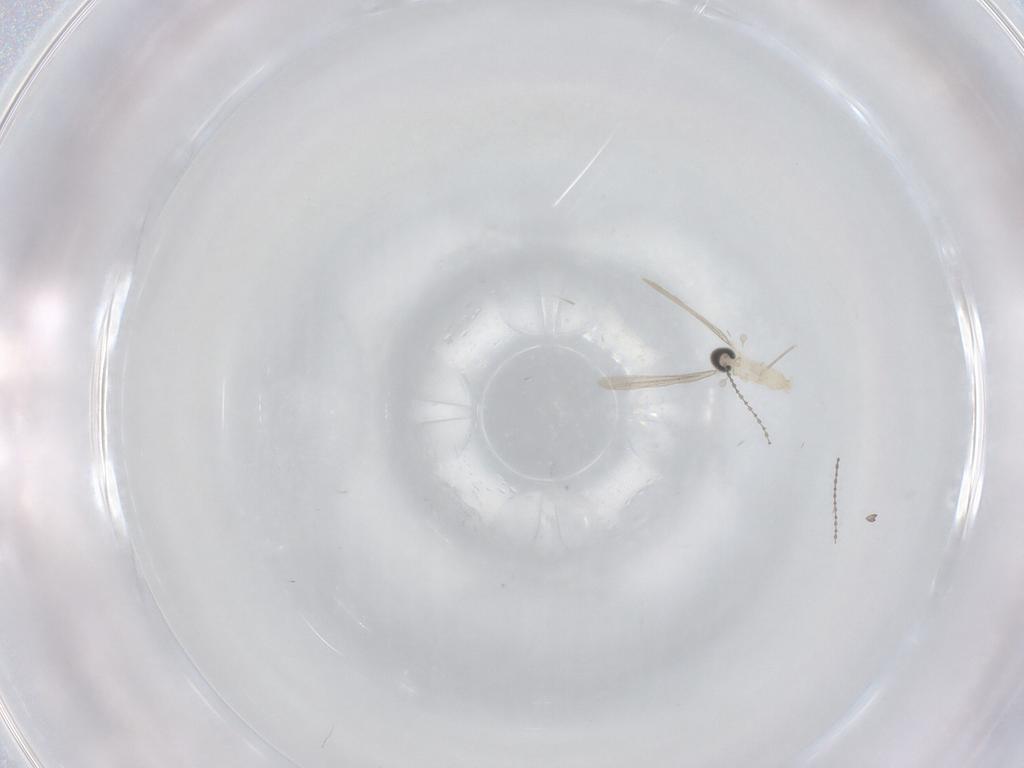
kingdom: Animalia
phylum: Arthropoda
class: Insecta
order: Diptera
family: Cecidomyiidae
